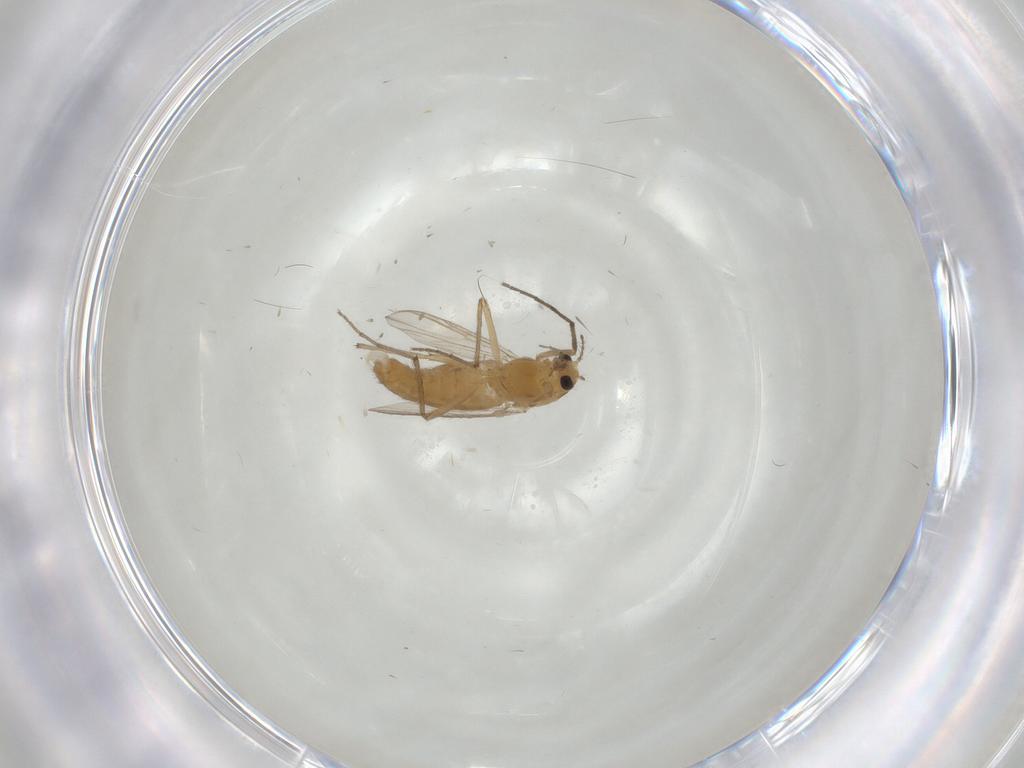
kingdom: Animalia
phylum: Arthropoda
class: Insecta
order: Diptera
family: Chironomidae
